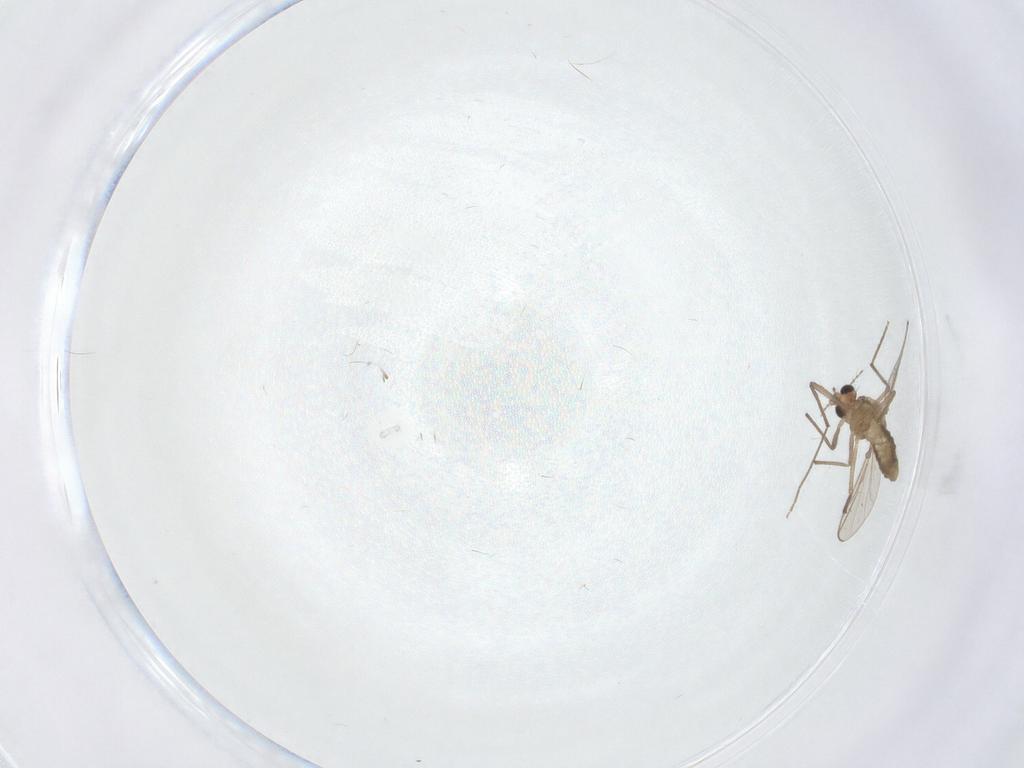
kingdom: Animalia
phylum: Arthropoda
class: Insecta
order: Diptera
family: Chironomidae
